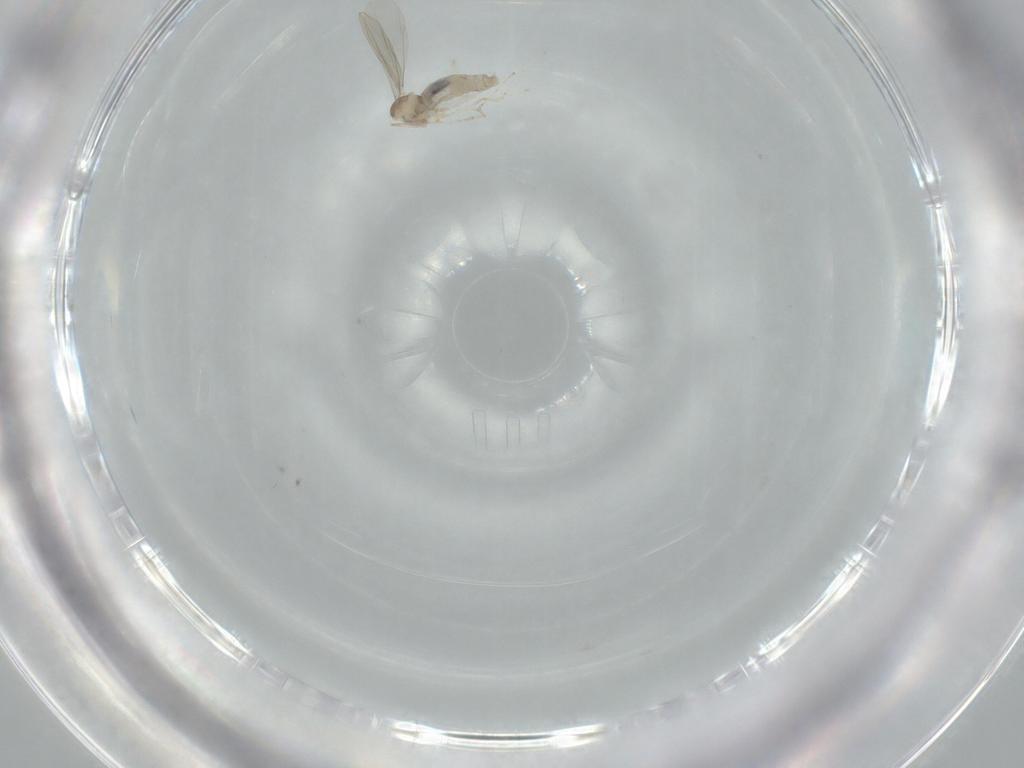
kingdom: Animalia
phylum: Arthropoda
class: Insecta
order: Diptera
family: Cecidomyiidae
